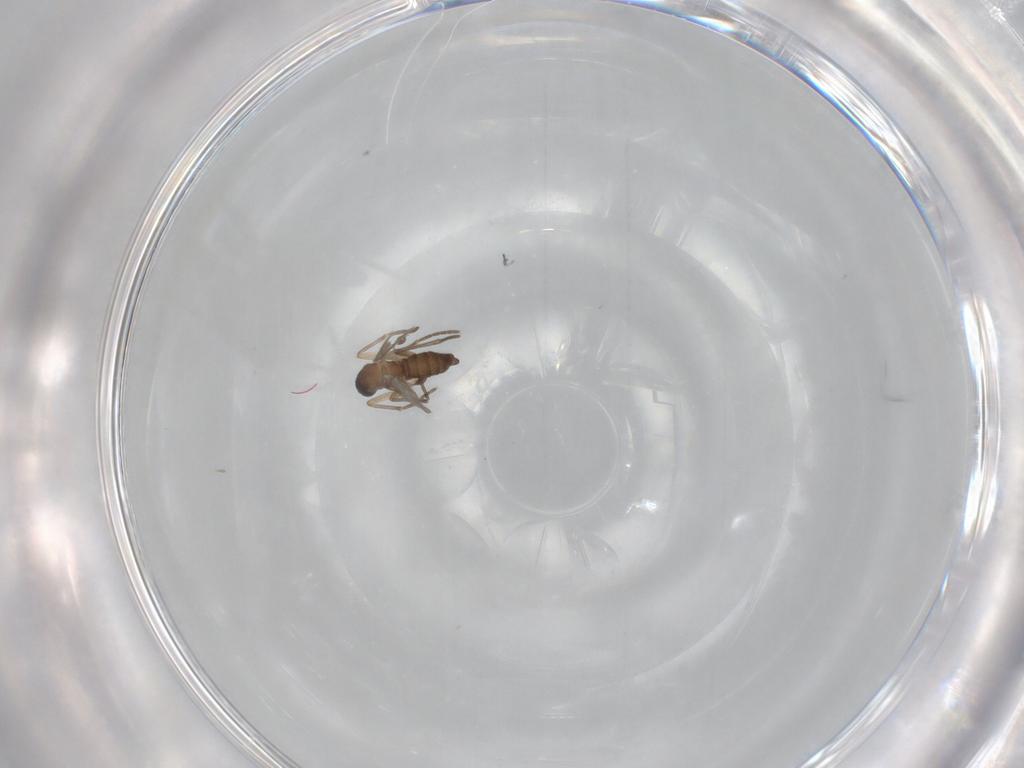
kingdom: Animalia
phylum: Arthropoda
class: Insecta
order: Diptera
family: Sciaridae
